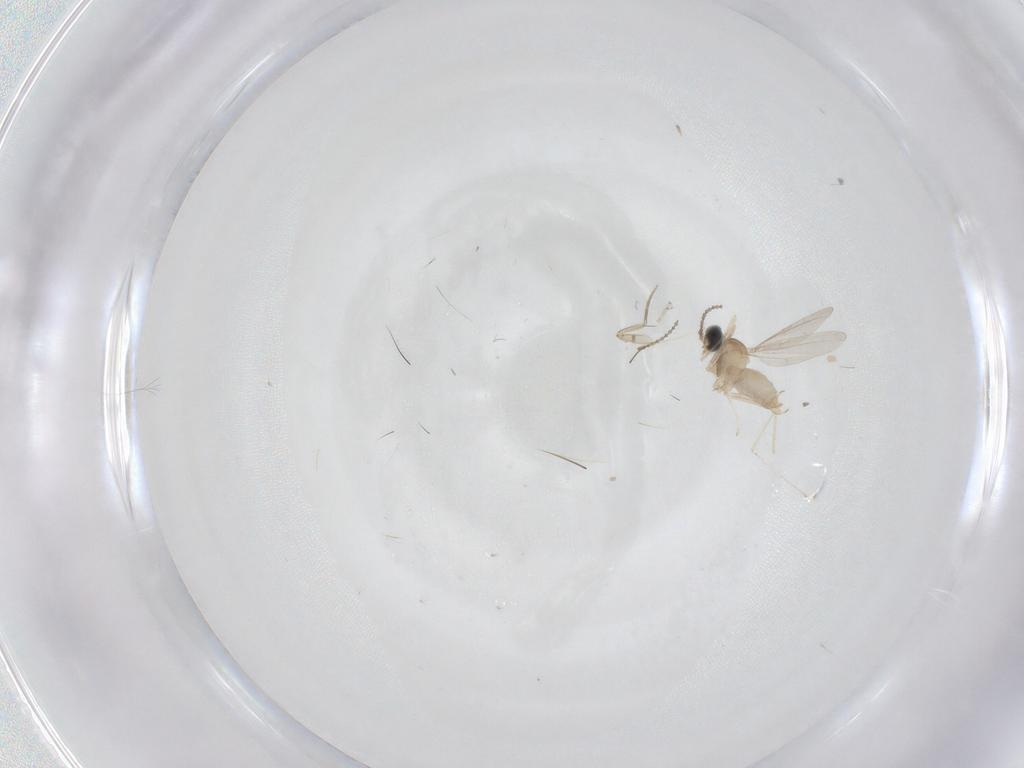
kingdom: Animalia
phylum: Arthropoda
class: Insecta
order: Diptera
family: Cecidomyiidae
